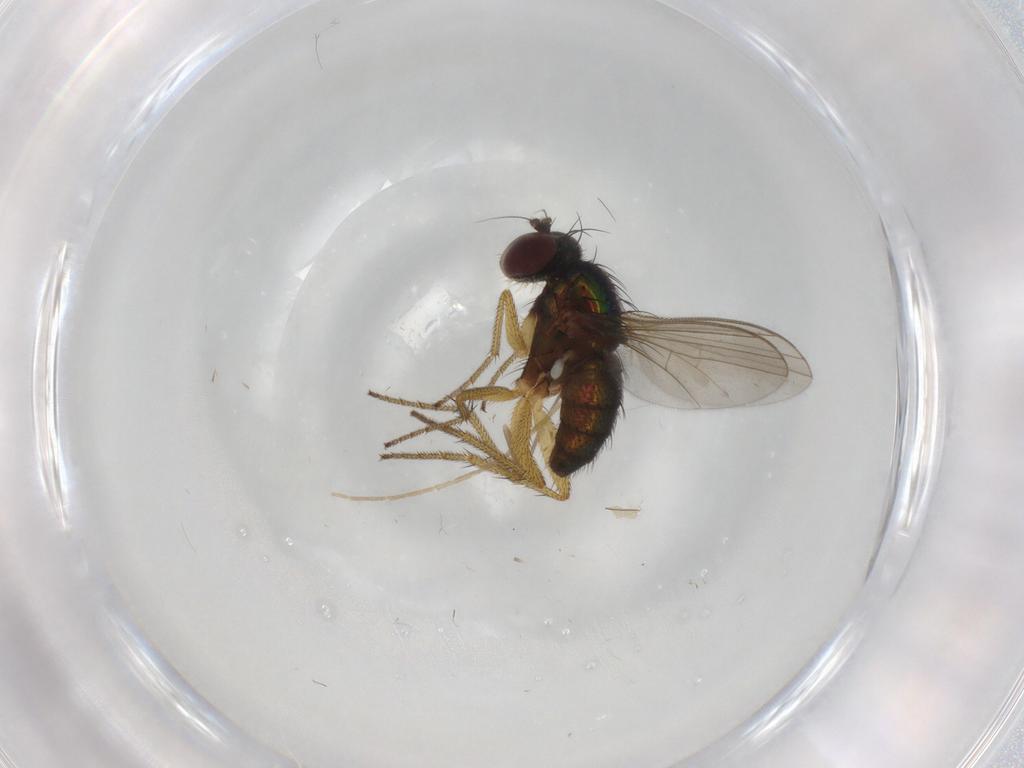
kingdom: Animalia
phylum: Arthropoda
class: Insecta
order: Diptera
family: Chironomidae
